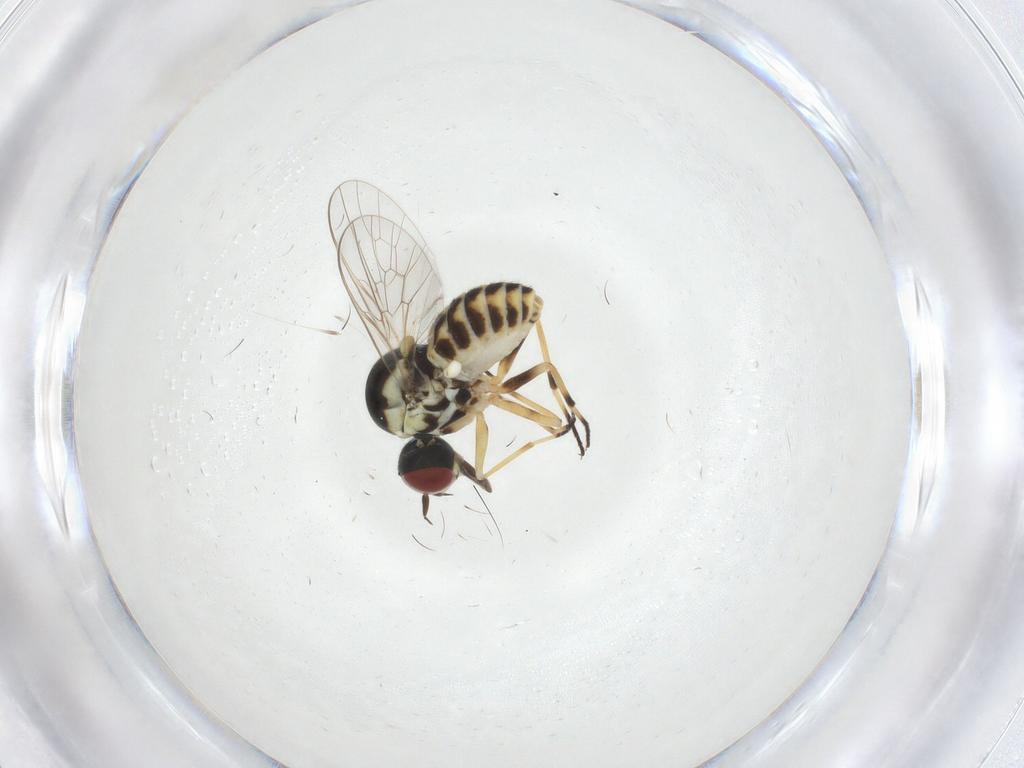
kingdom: Animalia
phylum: Arthropoda
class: Insecta
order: Diptera
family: Mythicomyiidae
